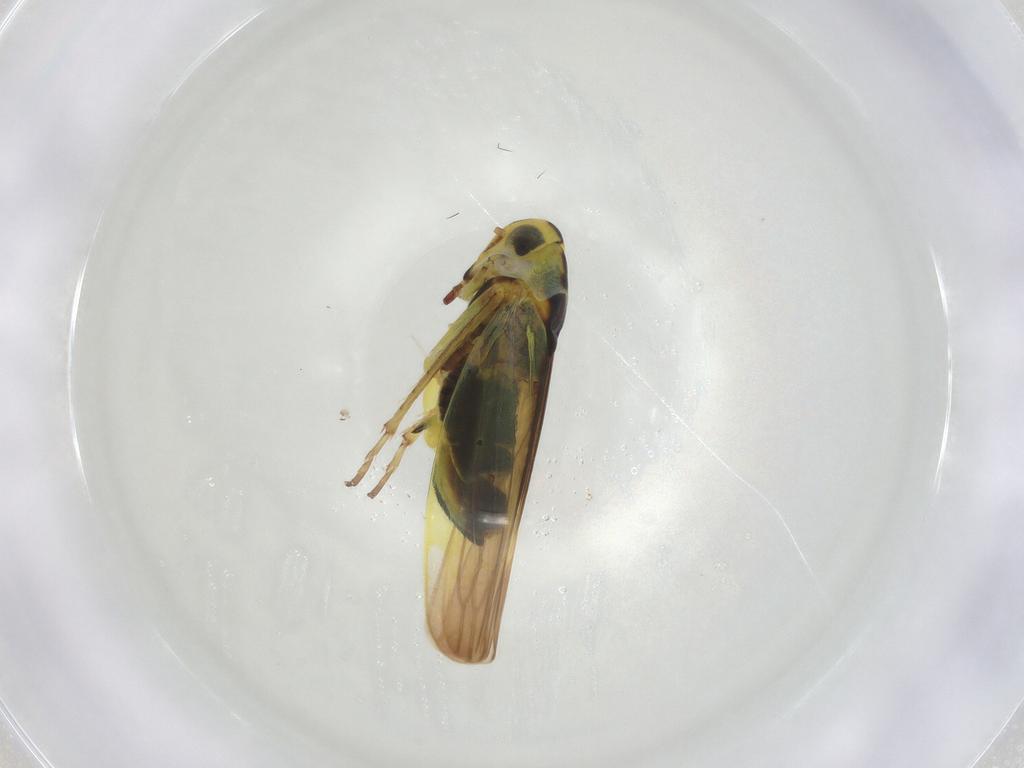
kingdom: Animalia
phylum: Arthropoda
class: Insecta
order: Hemiptera
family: Cicadellidae
